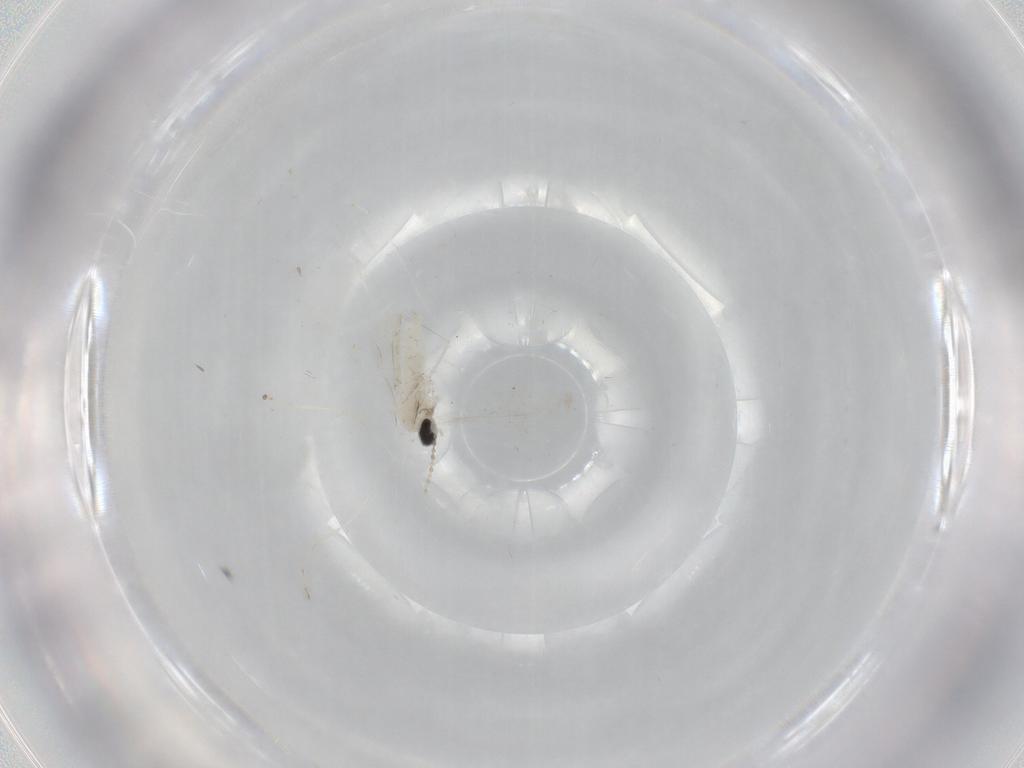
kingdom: Animalia
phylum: Arthropoda
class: Insecta
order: Diptera
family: Cecidomyiidae
